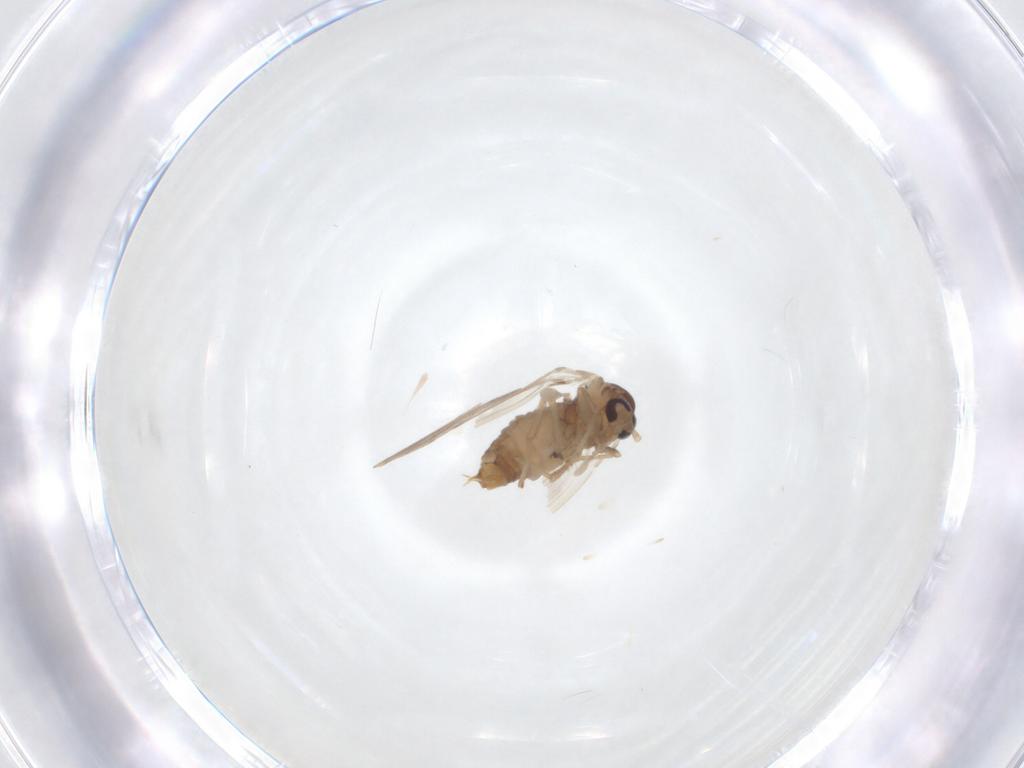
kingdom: Animalia
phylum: Arthropoda
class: Insecta
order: Diptera
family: Psychodidae
